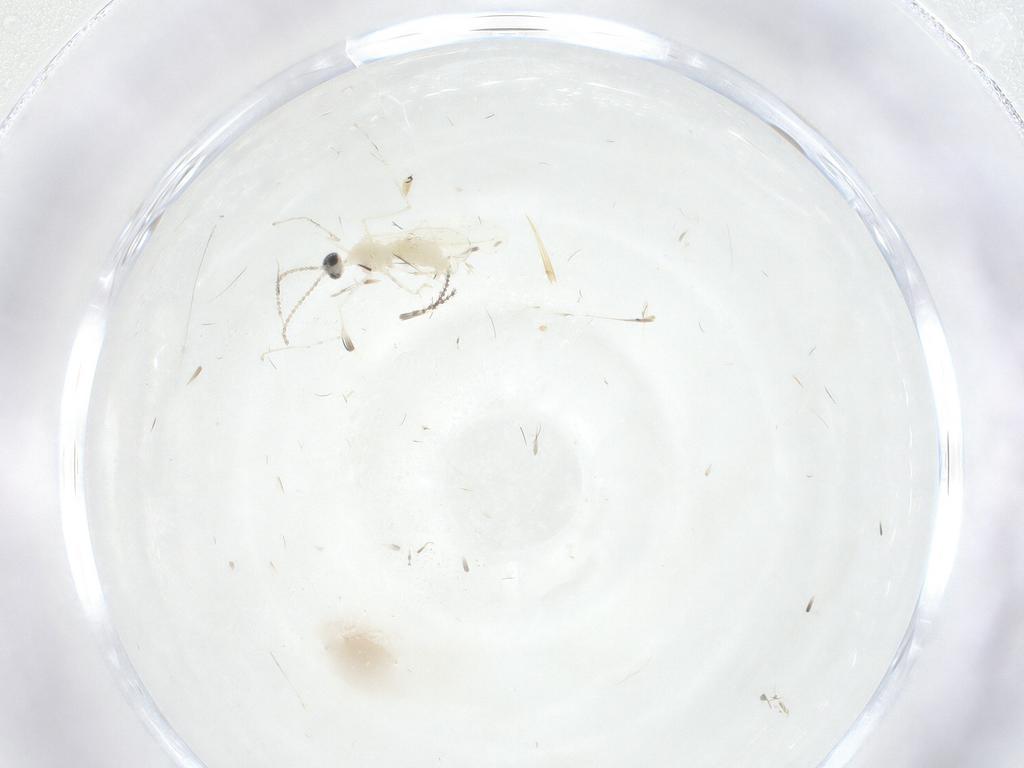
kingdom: Animalia
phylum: Arthropoda
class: Insecta
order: Diptera
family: Cecidomyiidae
